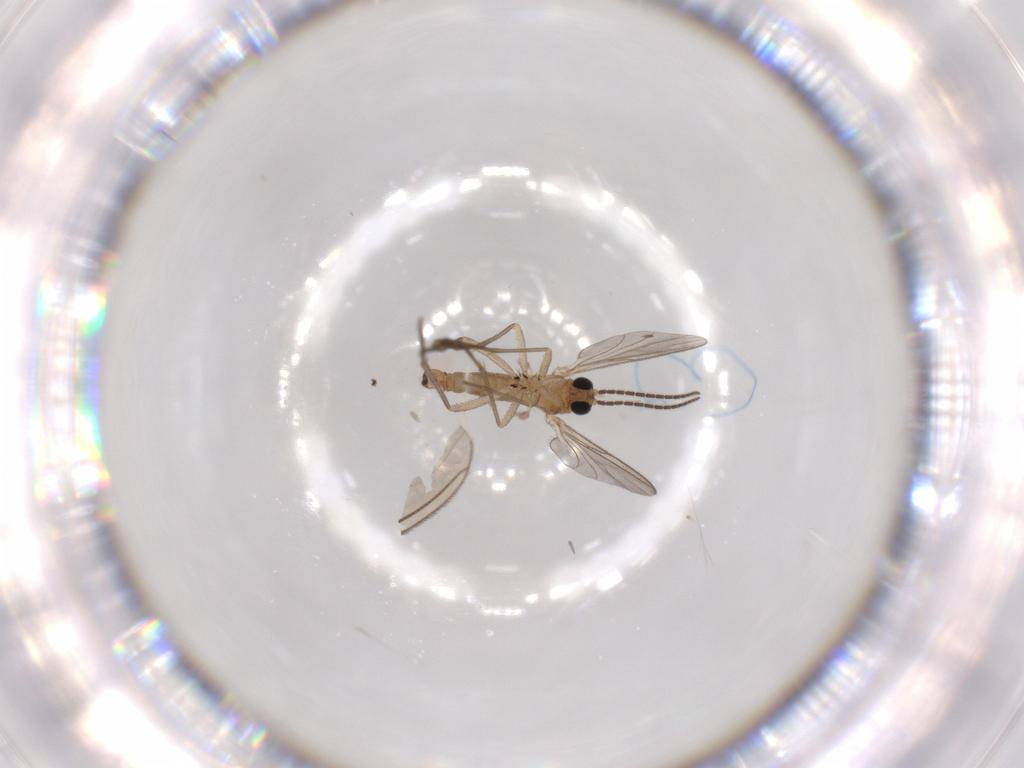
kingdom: Animalia
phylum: Arthropoda
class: Insecta
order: Diptera
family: Sciaridae
